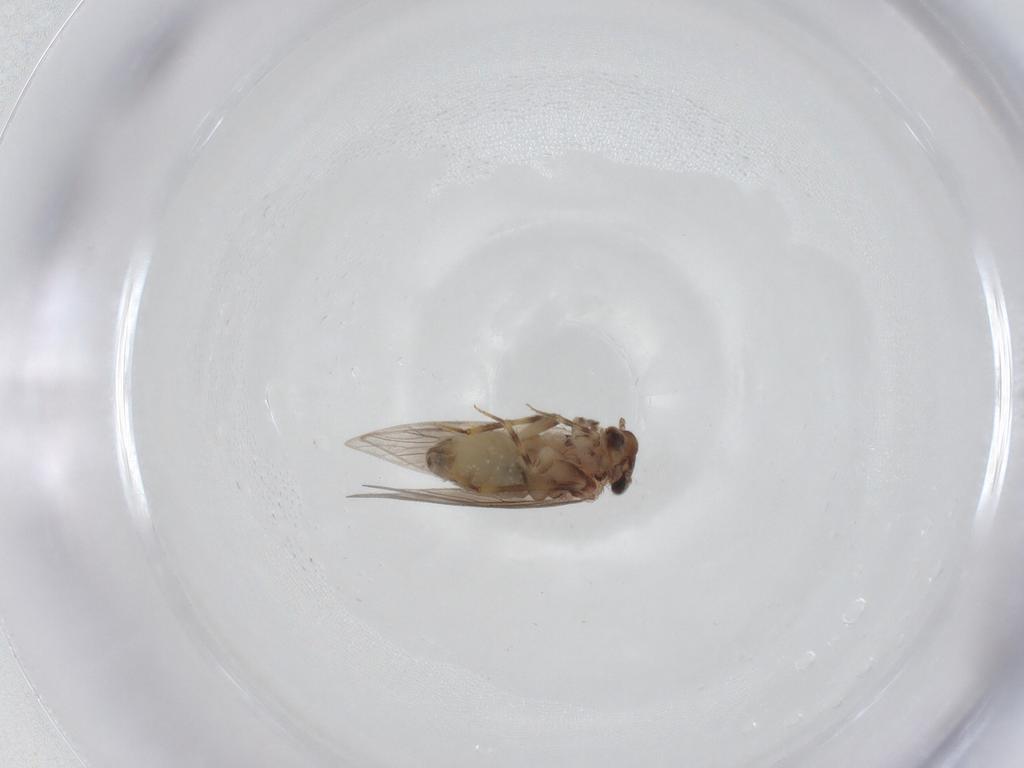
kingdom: Animalia
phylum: Arthropoda
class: Insecta
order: Psocodea
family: Lepidopsocidae
